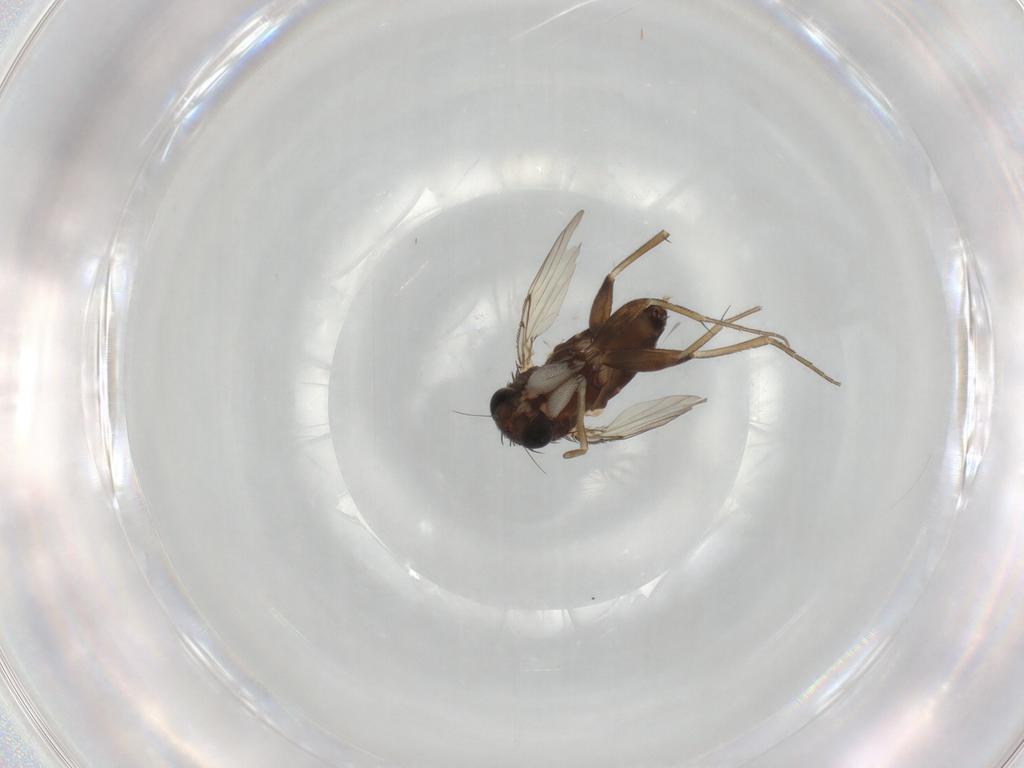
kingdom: Animalia
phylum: Arthropoda
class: Insecta
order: Diptera
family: Phoridae
